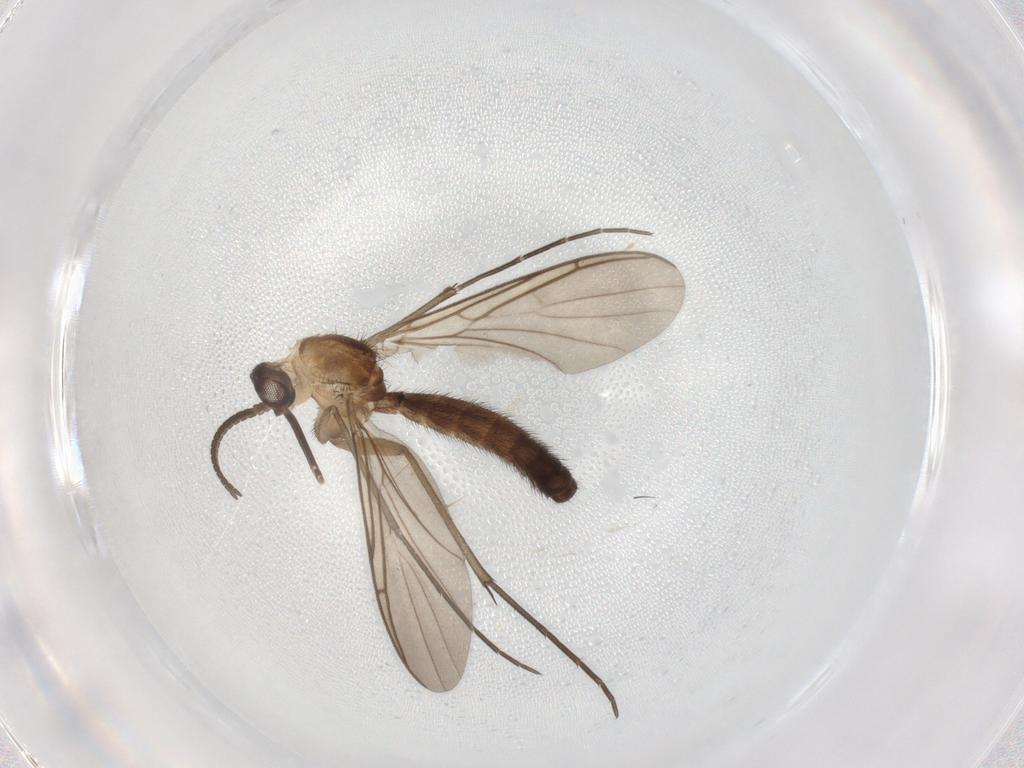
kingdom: Animalia
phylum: Arthropoda
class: Insecta
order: Diptera
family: Keroplatidae
